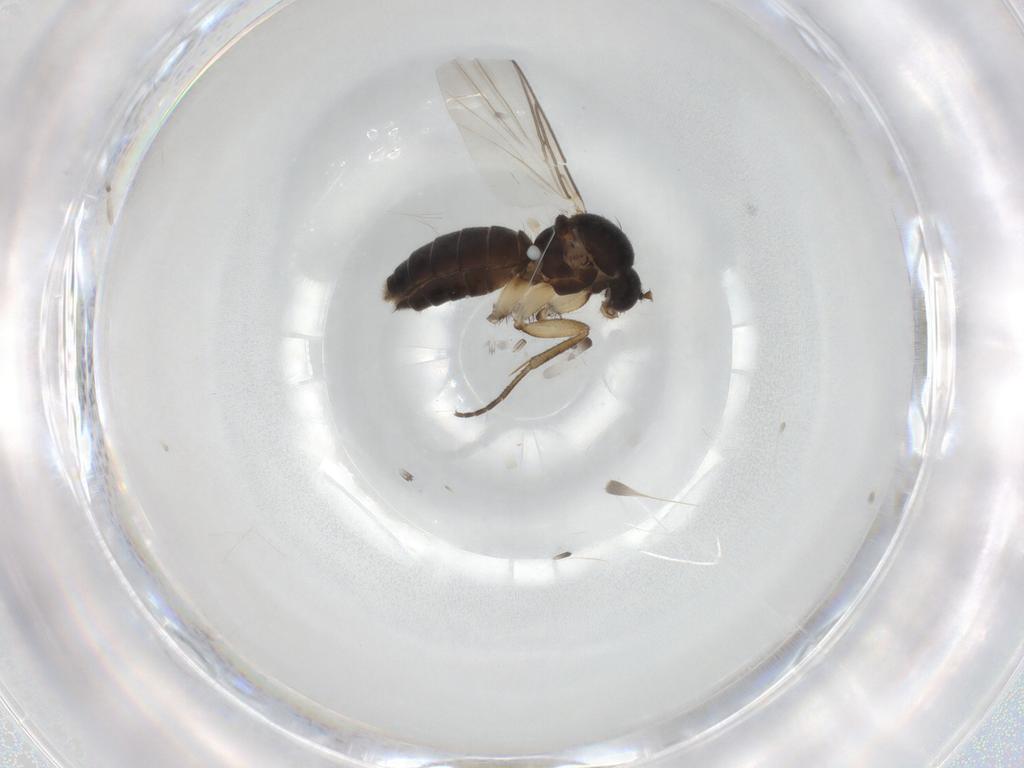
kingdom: Animalia
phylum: Arthropoda
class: Insecta
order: Diptera
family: Mycetophilidae
